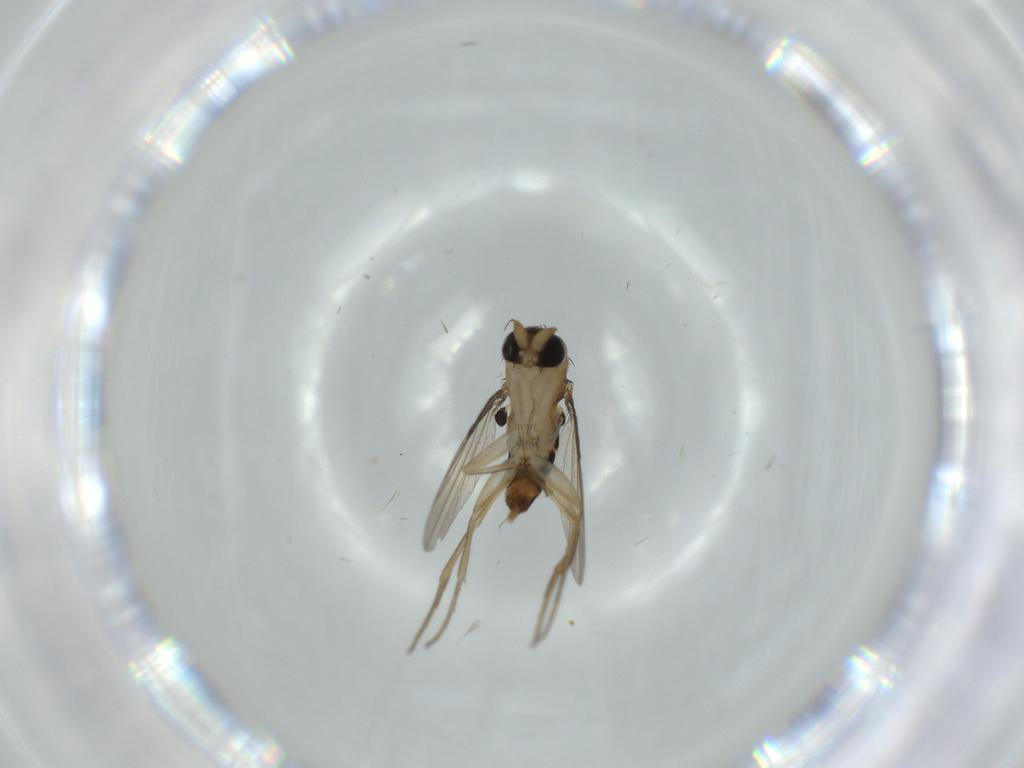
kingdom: Animalia
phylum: Arthropoda
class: Insecta
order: Diptera
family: Phoridae
